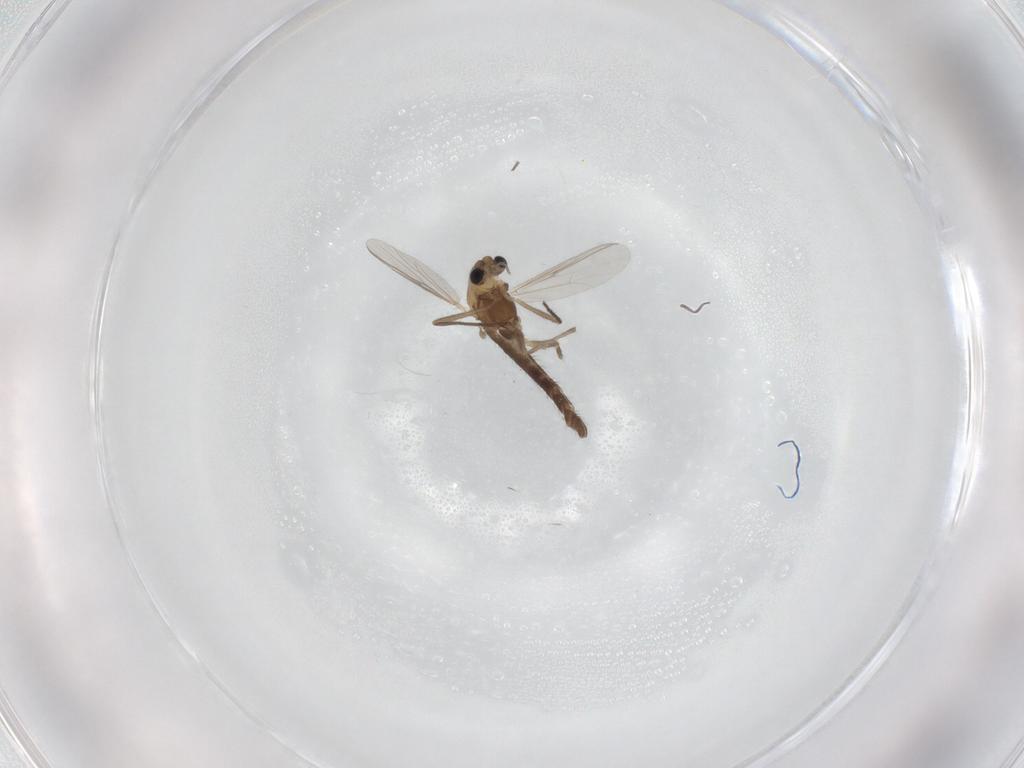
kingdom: Animalia
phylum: Arthropoda
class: Insecta
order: Diptera
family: Chironomidae
